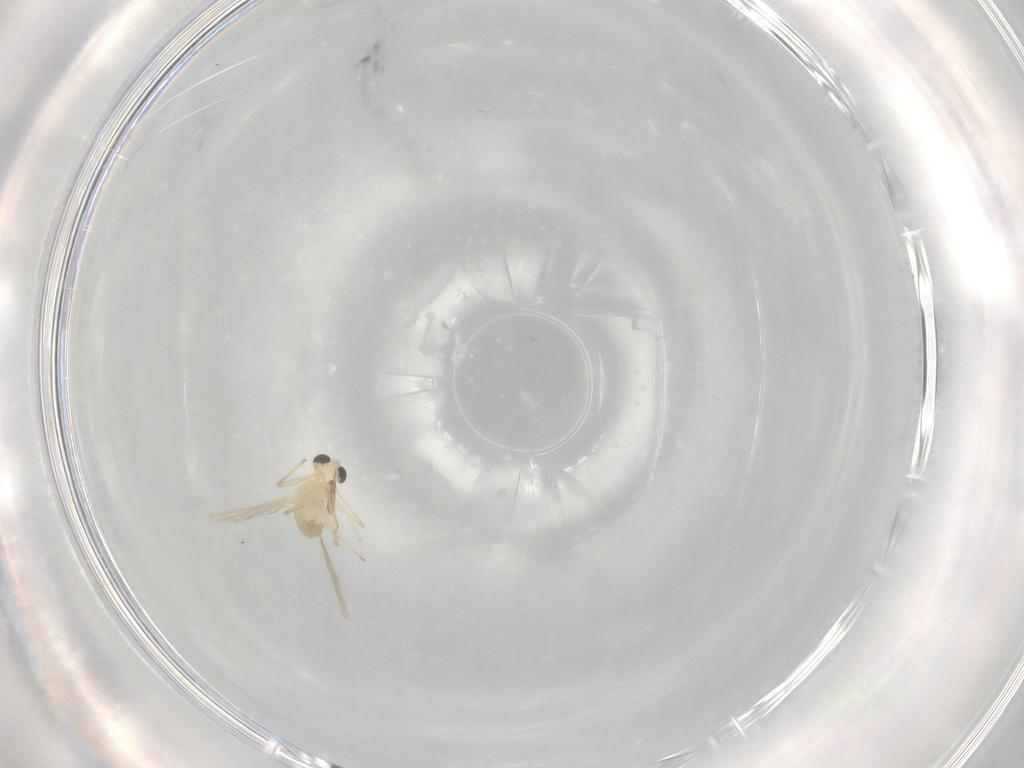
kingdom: Animalia
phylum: Arthropoda
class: Insecta
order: Diptera
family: Chironomidae
